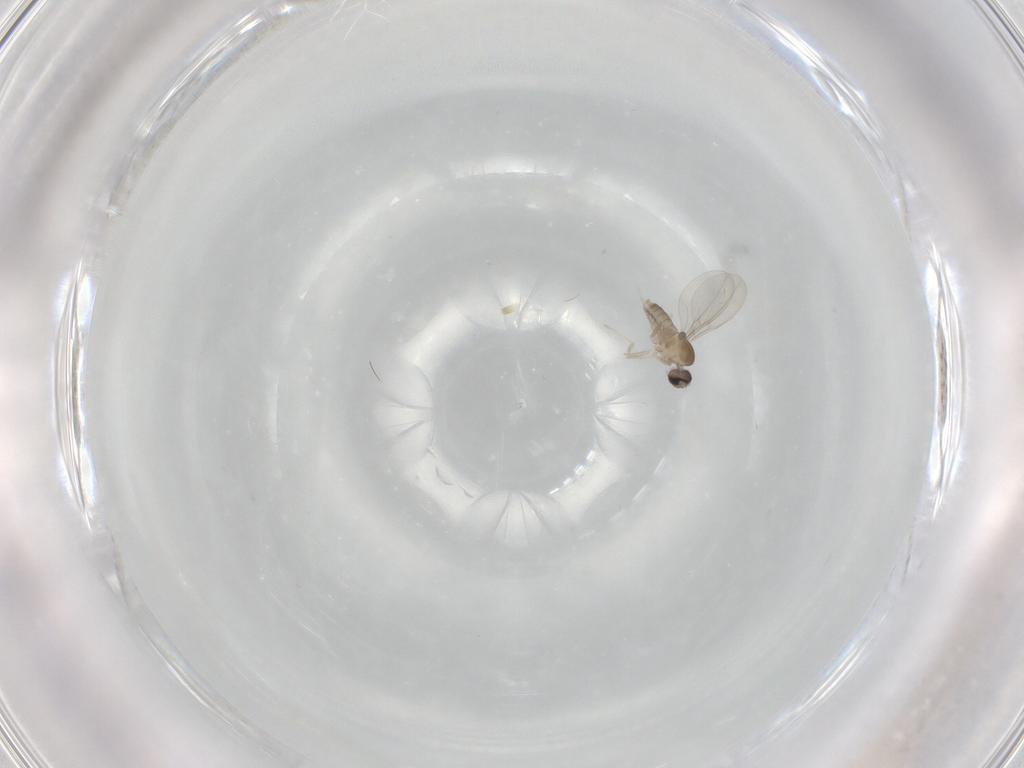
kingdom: Animalia
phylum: Arthropoda
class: Insecta
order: Diptera
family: Cecidomyiidae
